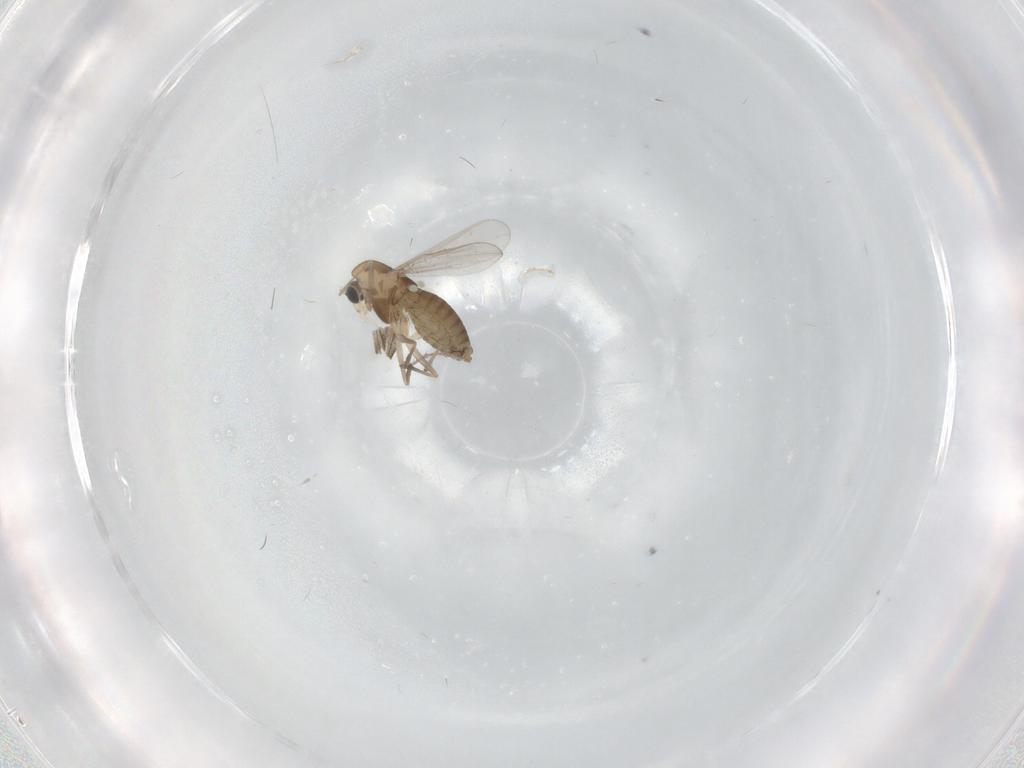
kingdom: Animalia
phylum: Arthropoda
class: Insecta
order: Diptera
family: Chironomidae
